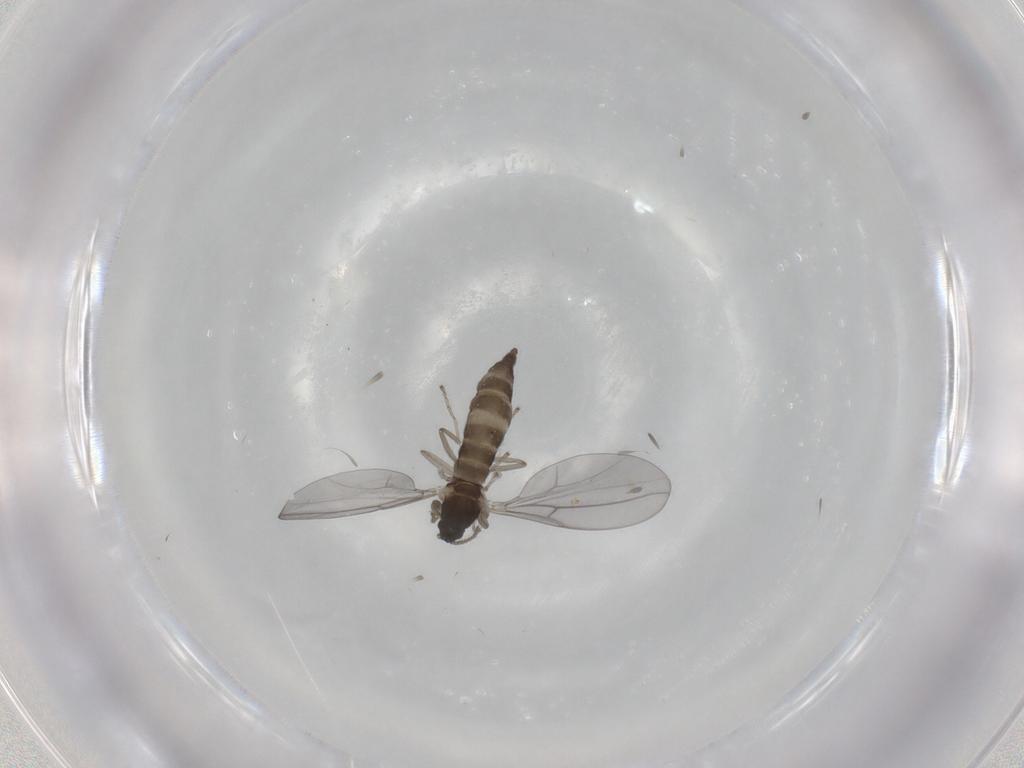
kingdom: Animalia
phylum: Arthropoda
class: Insecta
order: Diptera
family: Cecidomyiidae
